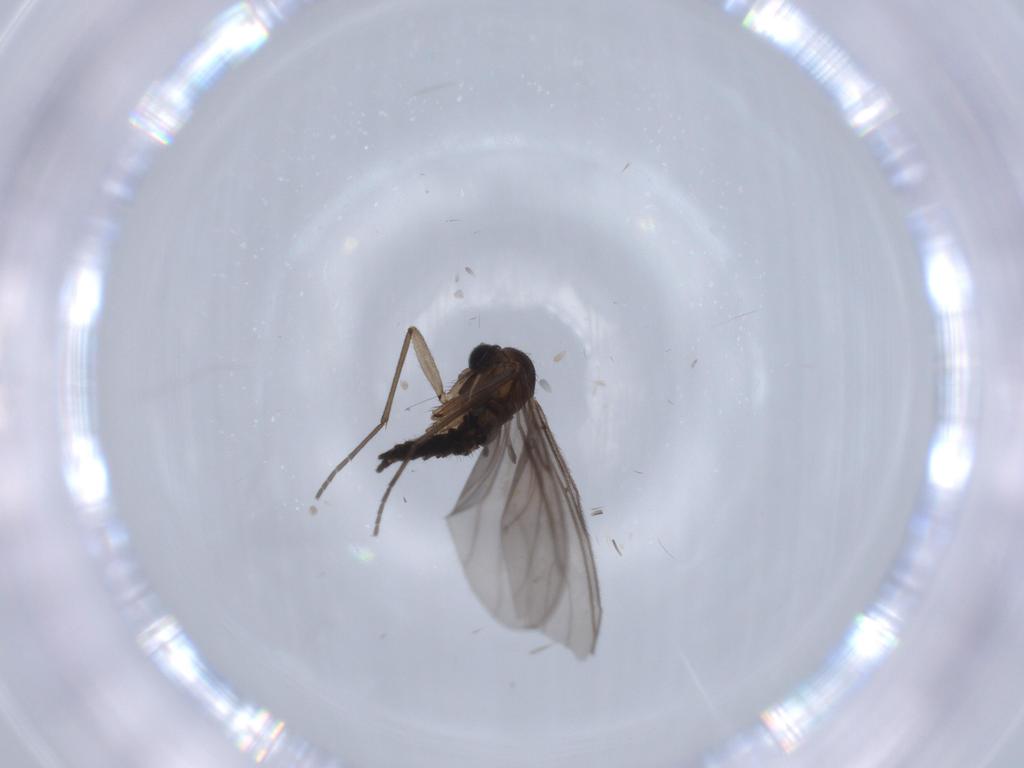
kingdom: Animalia
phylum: Arthropoda
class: Insecta
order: Diptera
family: Sciaridae
